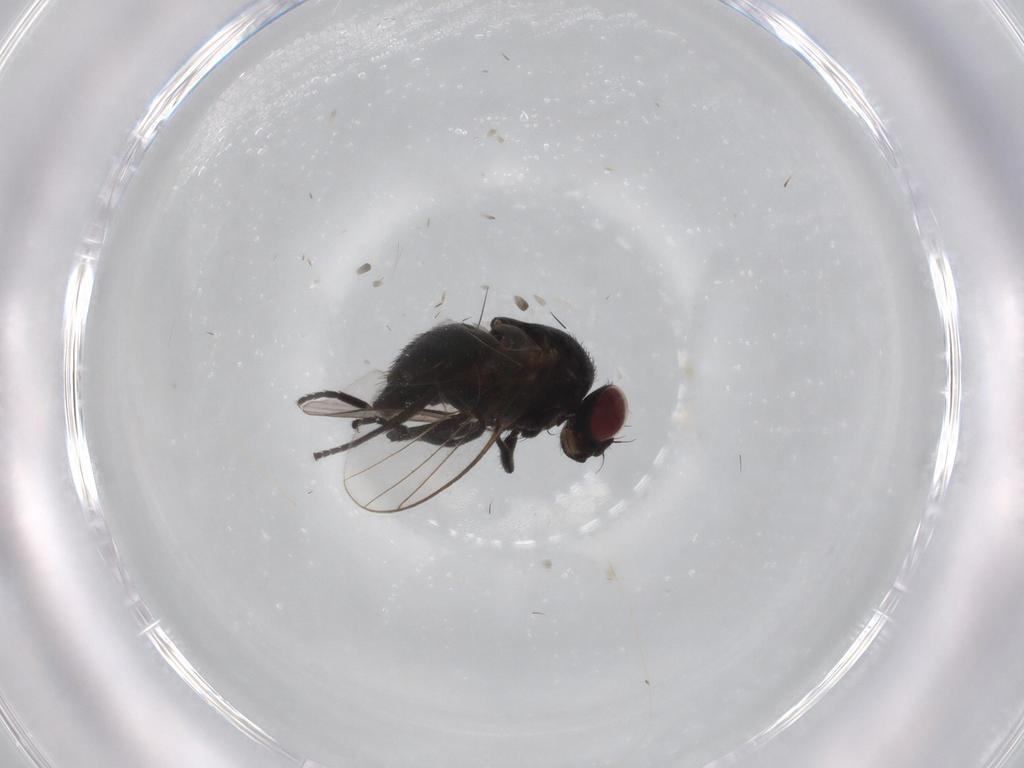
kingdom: Animalia
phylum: Arthropoda
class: Insecta
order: Diptera
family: Agromyzidae
